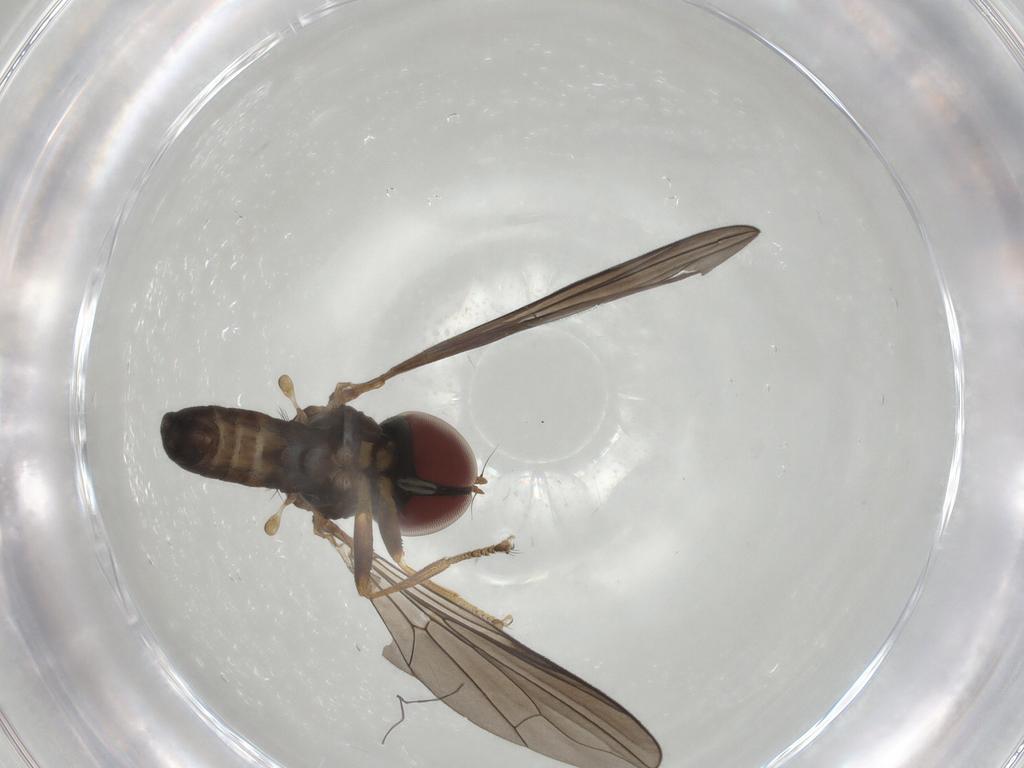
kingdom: Animalia
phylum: Arthropoda
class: Insecta
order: Diptera
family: Pipunculidae
